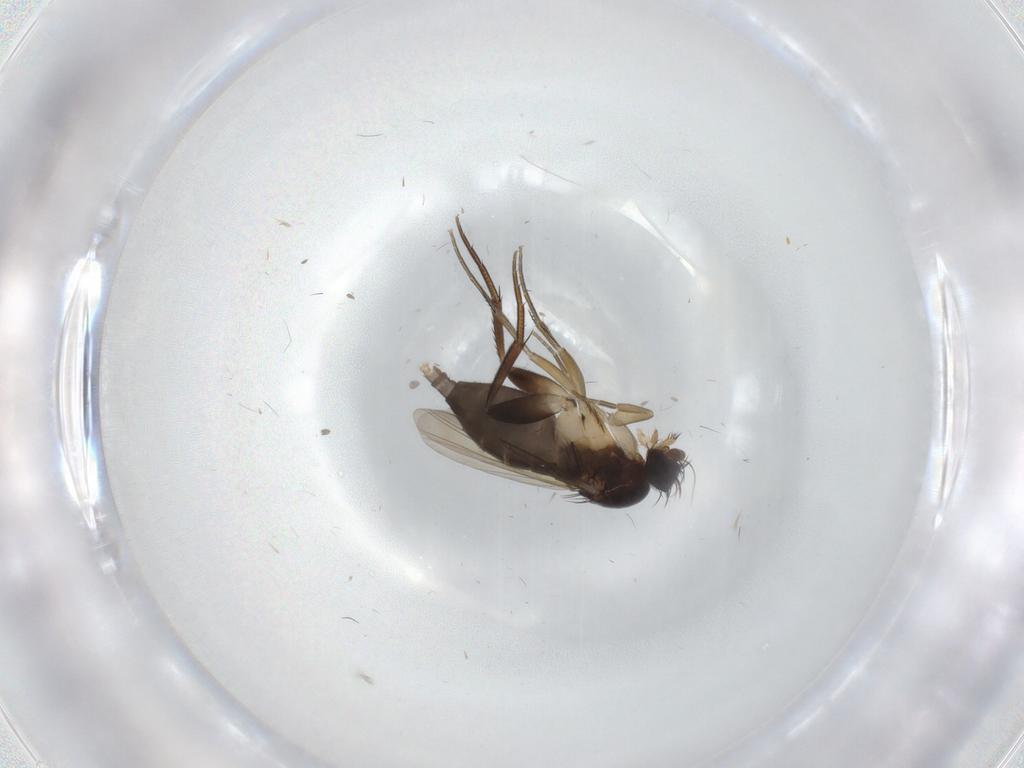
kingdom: Animalia
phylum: Arthropoda
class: Insecta
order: Diptera
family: Phoridae
